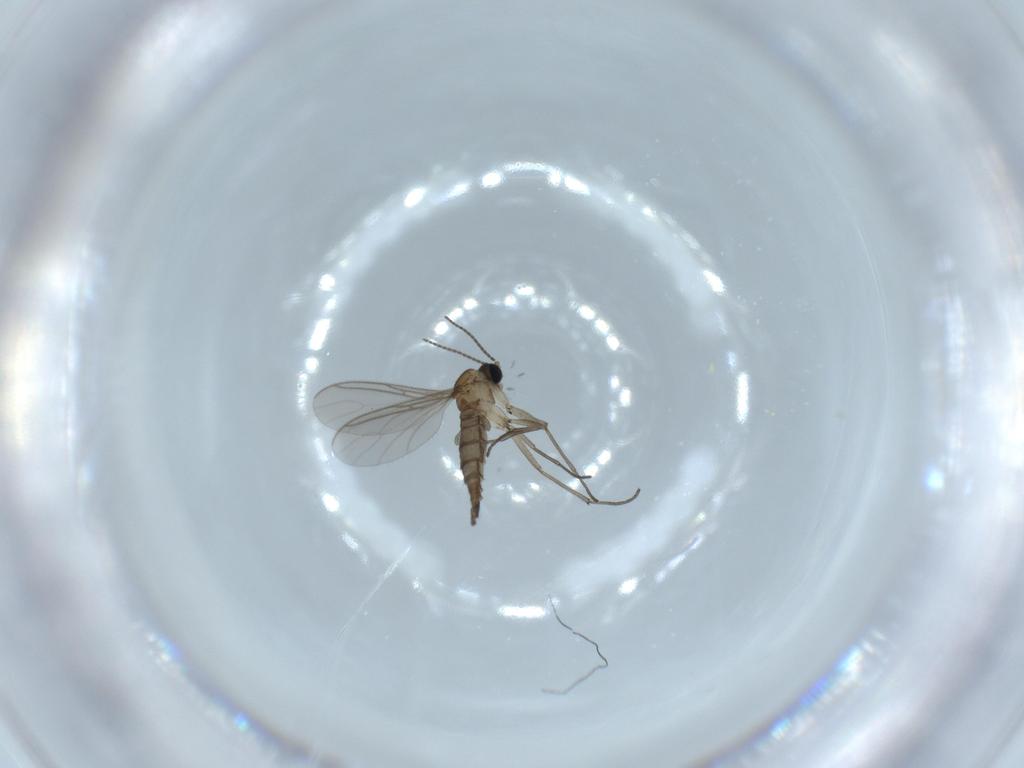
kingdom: Animalia
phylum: Arthropoda
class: Insecta
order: Diptera
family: Sciaridae
